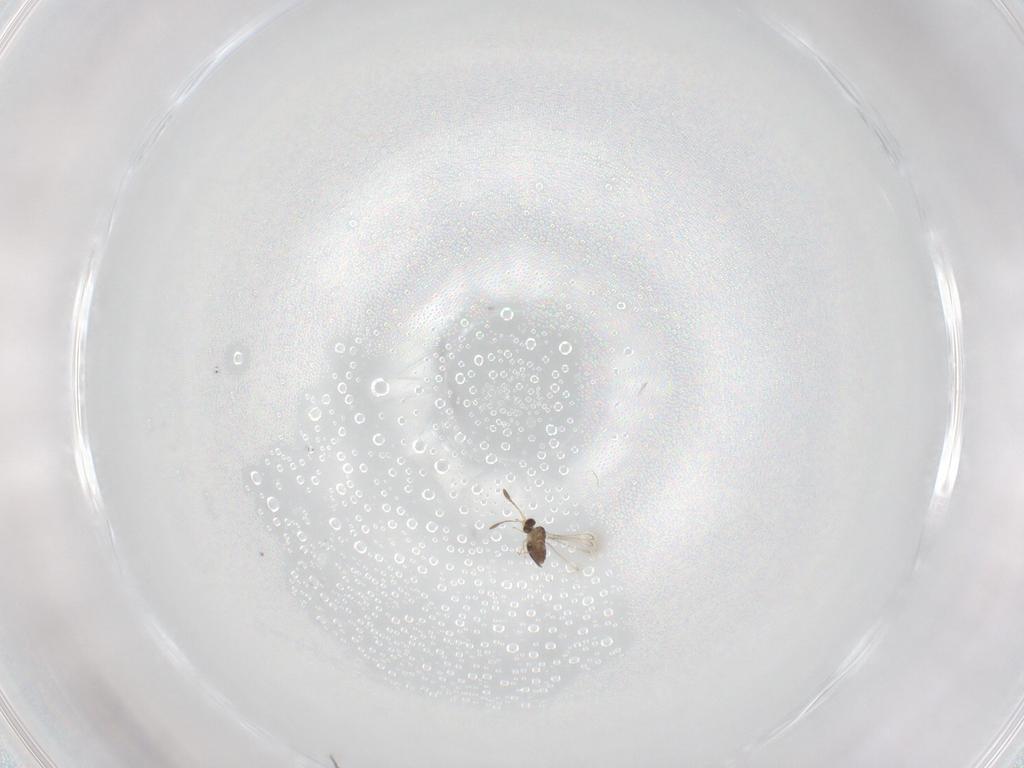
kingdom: Animalia
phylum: Arthropoda
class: Insecta
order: Hymenoptera
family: Mymaridae
